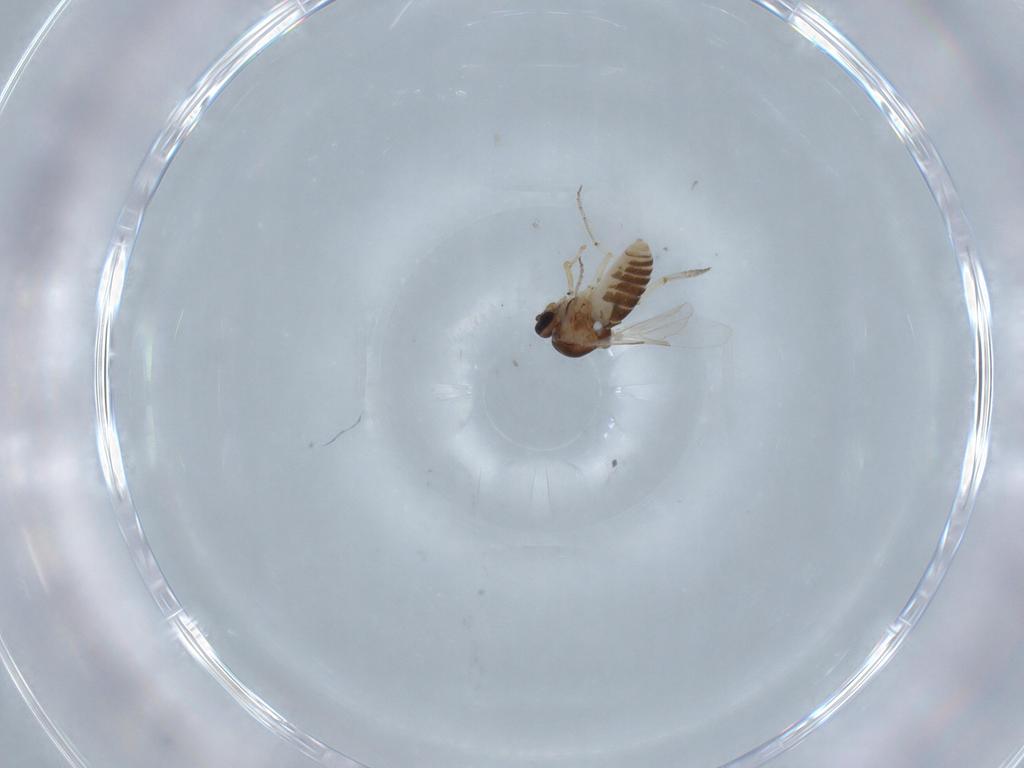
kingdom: Animalia
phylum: Arthropoda
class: Insecta
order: Diptera
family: Ceratopogonidae
